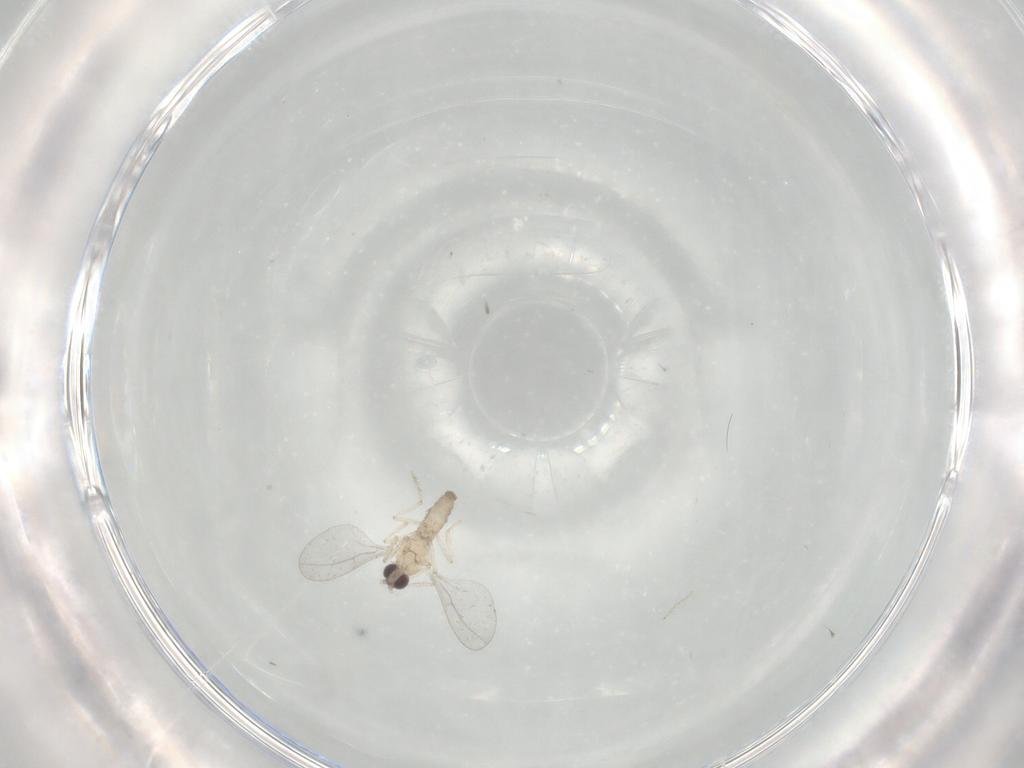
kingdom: Animalia
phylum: Arthropoda
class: Insecta
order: Diptera
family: Cecidomyiidae
